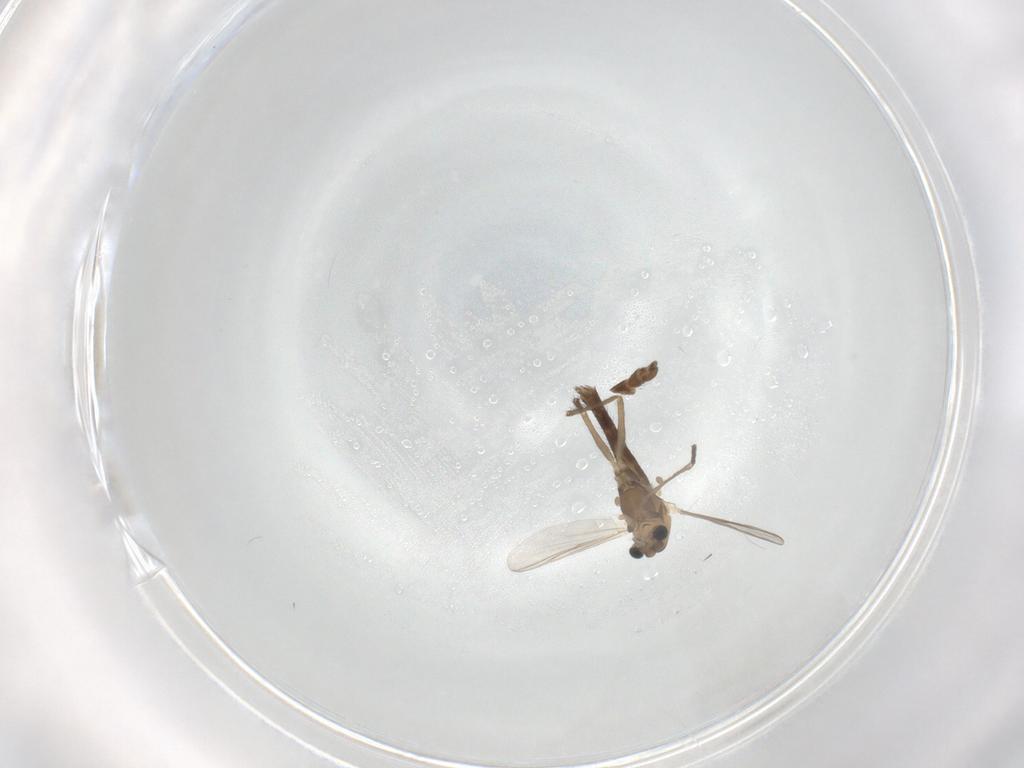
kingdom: Animalia
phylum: Arthropoda
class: Insecta
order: Diptera
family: Chironomidae
